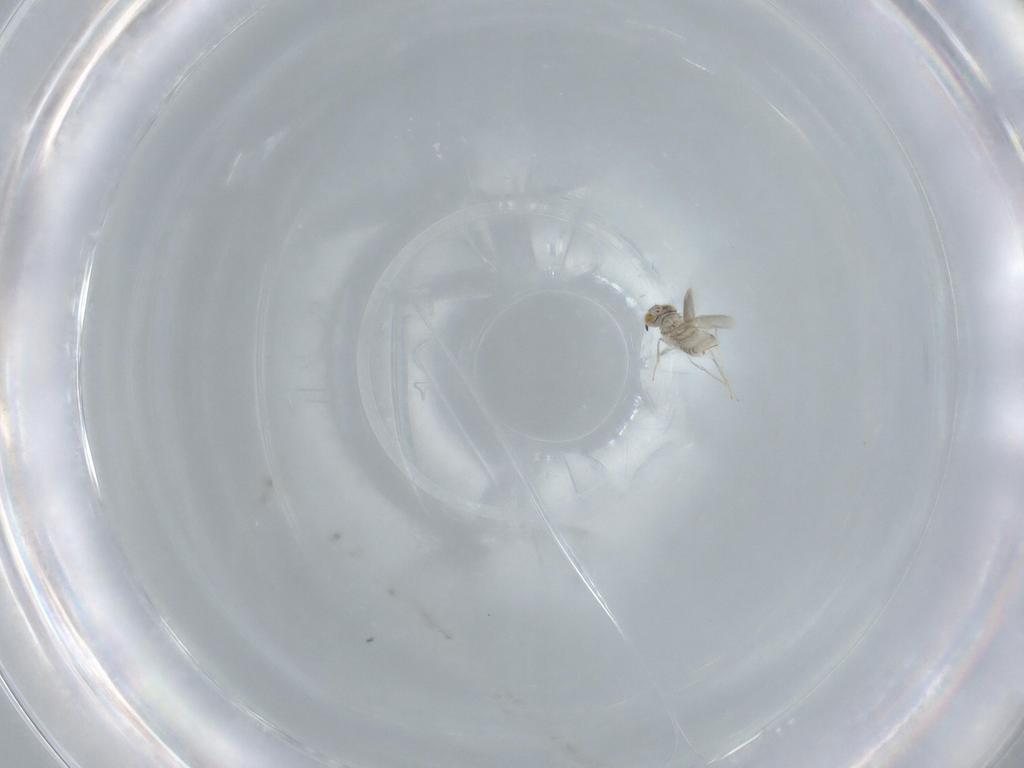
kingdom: Animalia
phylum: Arthropoda
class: Insecta
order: Hymenoptera
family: Aphelinidae
